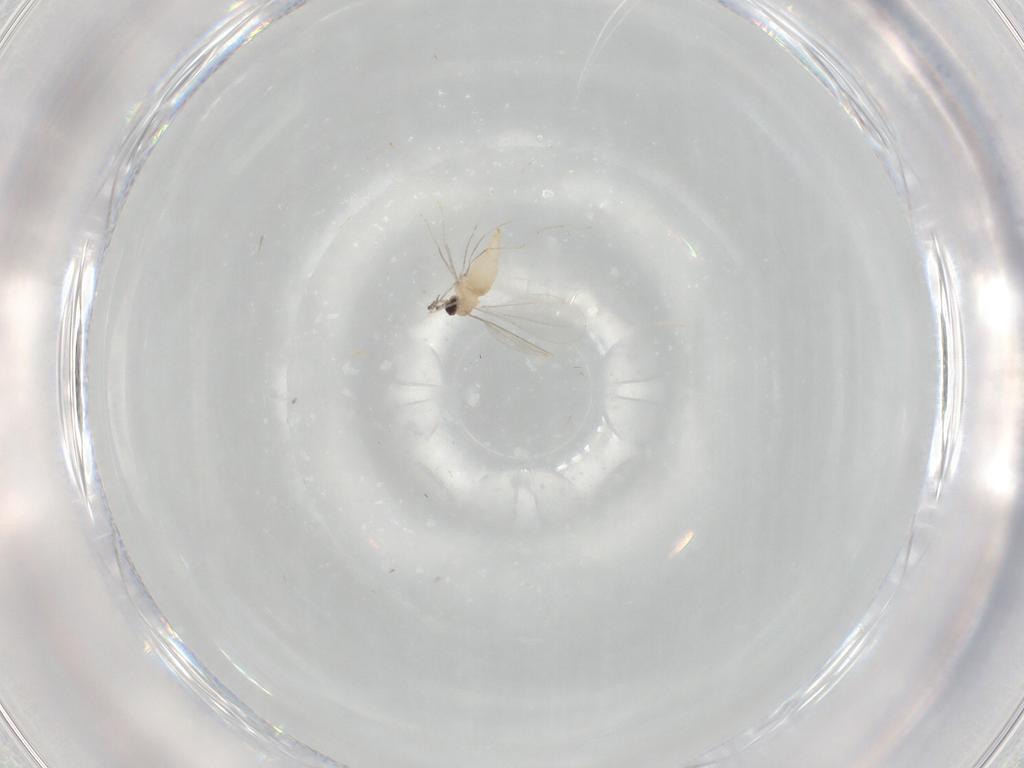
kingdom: Animalia
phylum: Arthropoda
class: Insecta
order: Diptera
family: Cecidomyiidae
